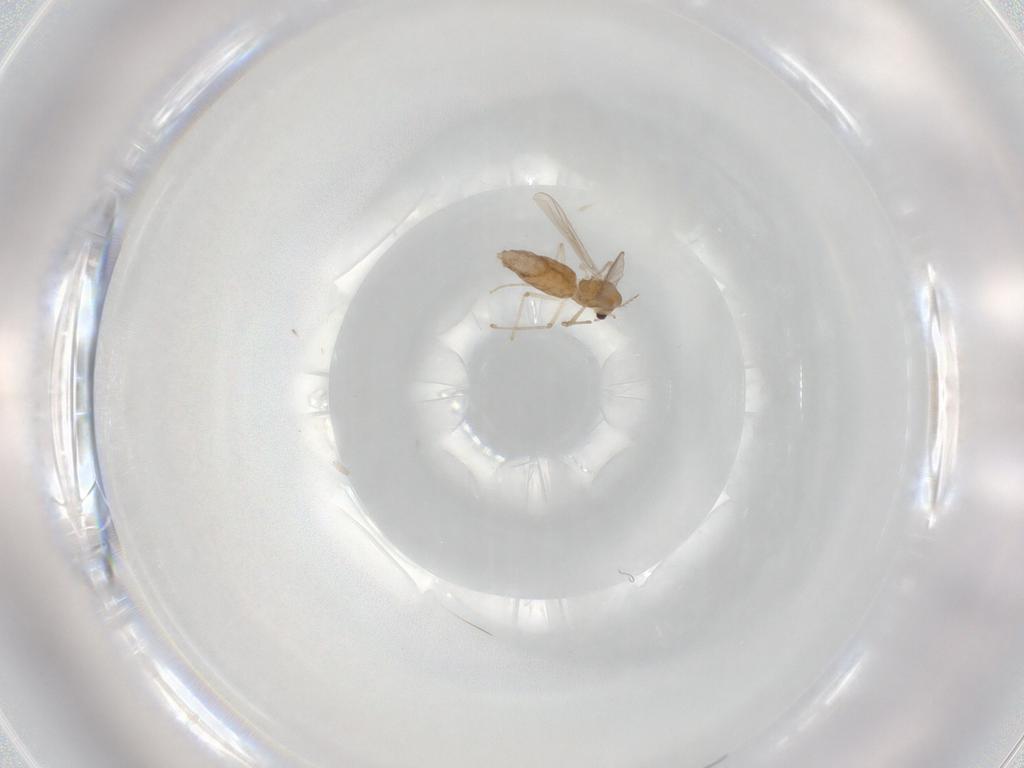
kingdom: Animalia
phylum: Arthropoda
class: Insecta
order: Diptera
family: Chironomidae
